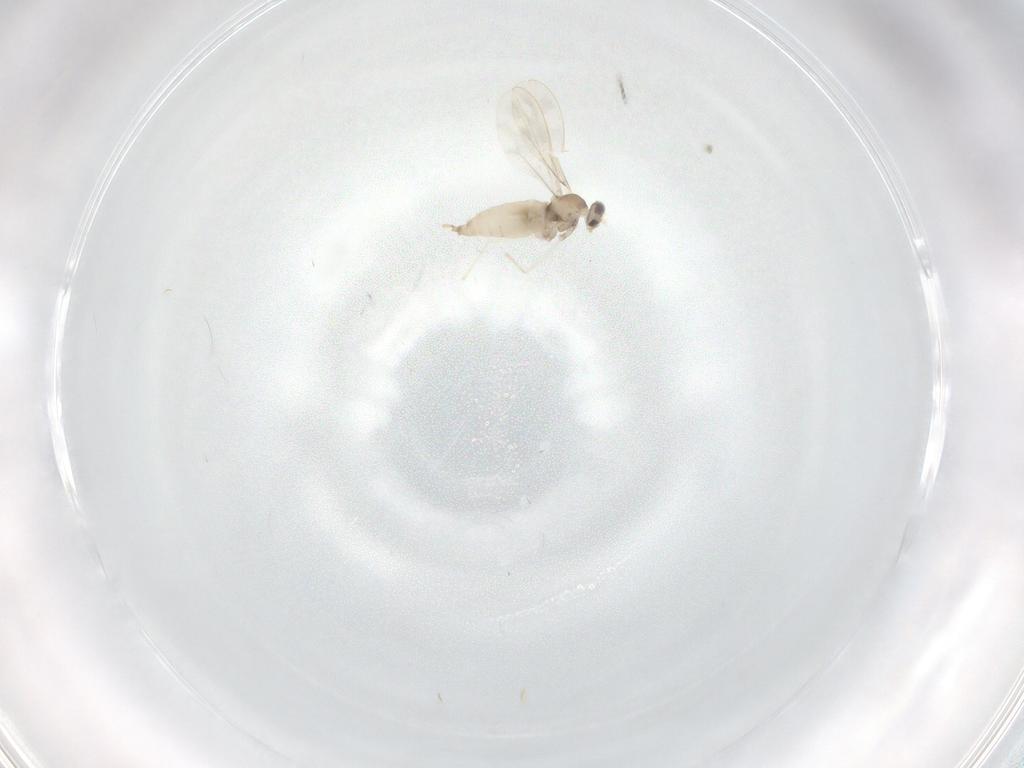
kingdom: Animalia
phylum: Arthropoda
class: Insecta
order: Diptera
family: Cecidomyiidae
